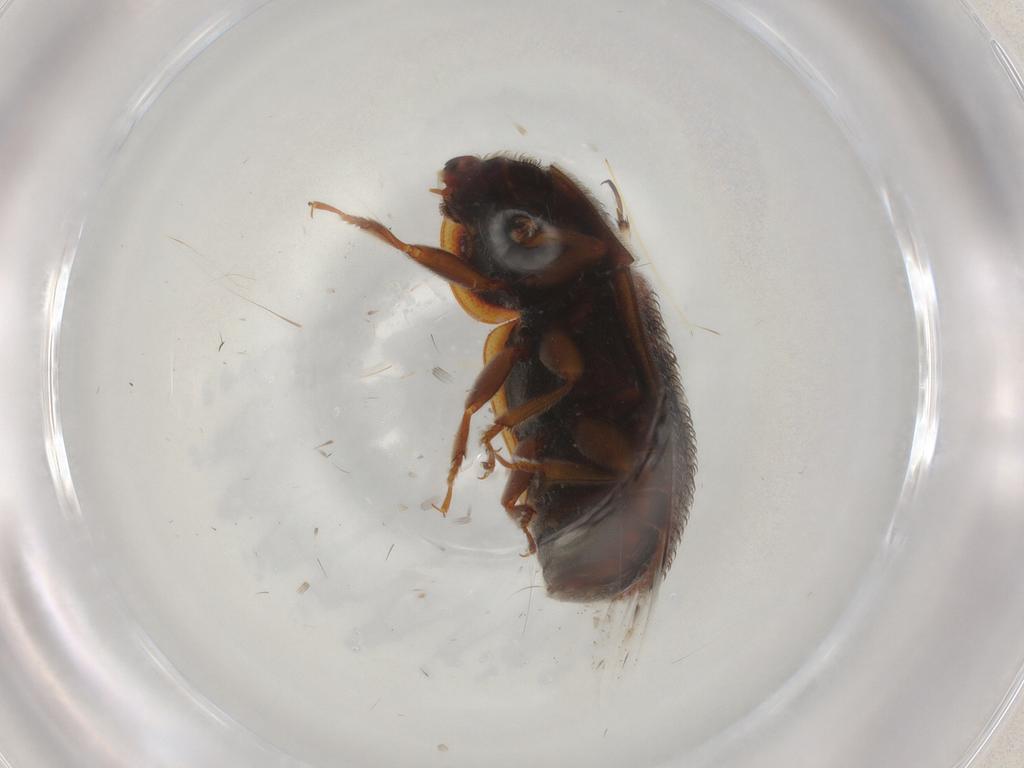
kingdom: Animalia
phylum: Arthropoda
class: Insecta
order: Coleoptera
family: Nitidulidae
